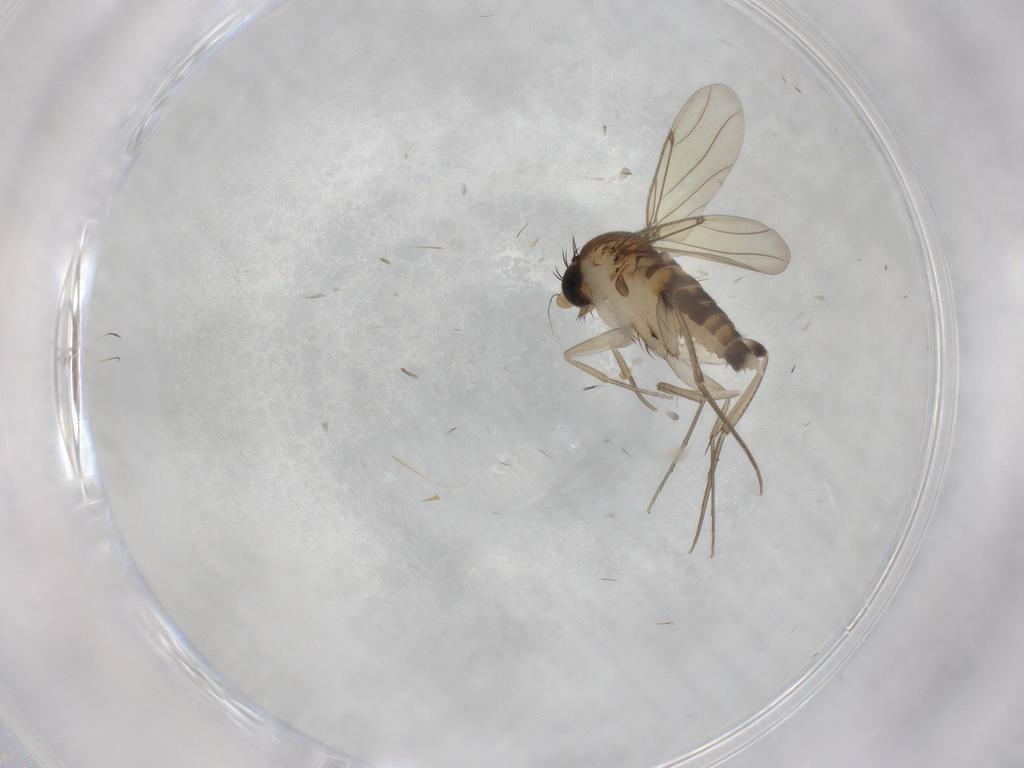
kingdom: Animalia
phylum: Arthropoda
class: Insecta
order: Diptera
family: Phoridae
